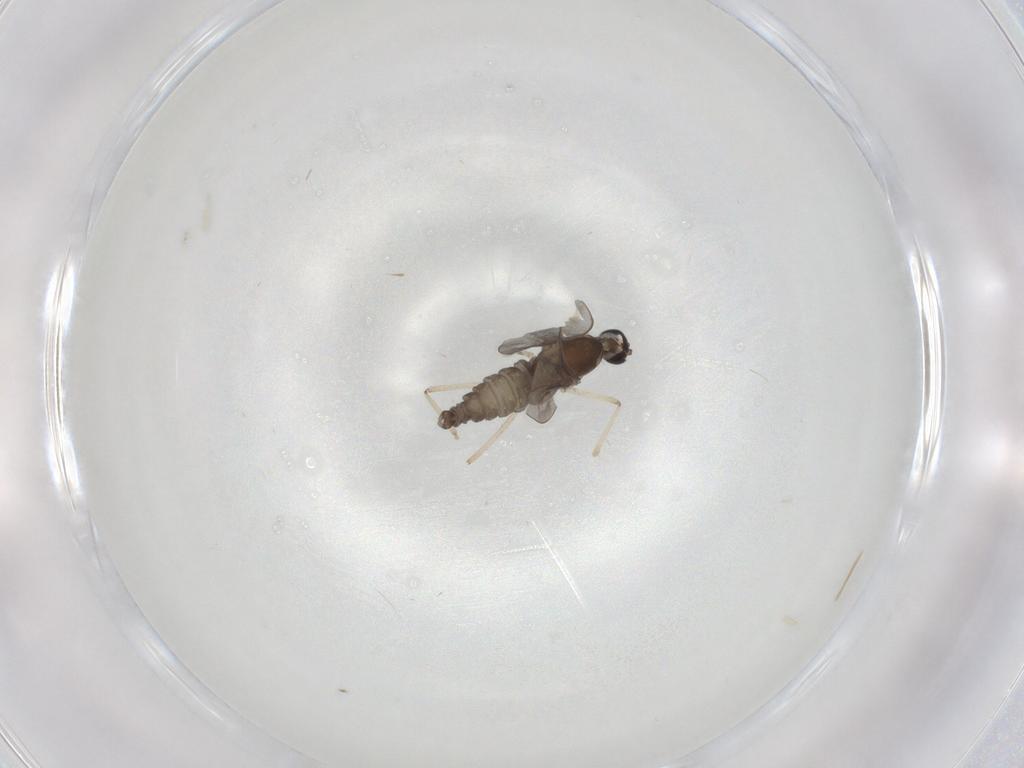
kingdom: Animalia
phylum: Arthropoda
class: Insecta
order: Diptera
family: Cecidomyiidae
